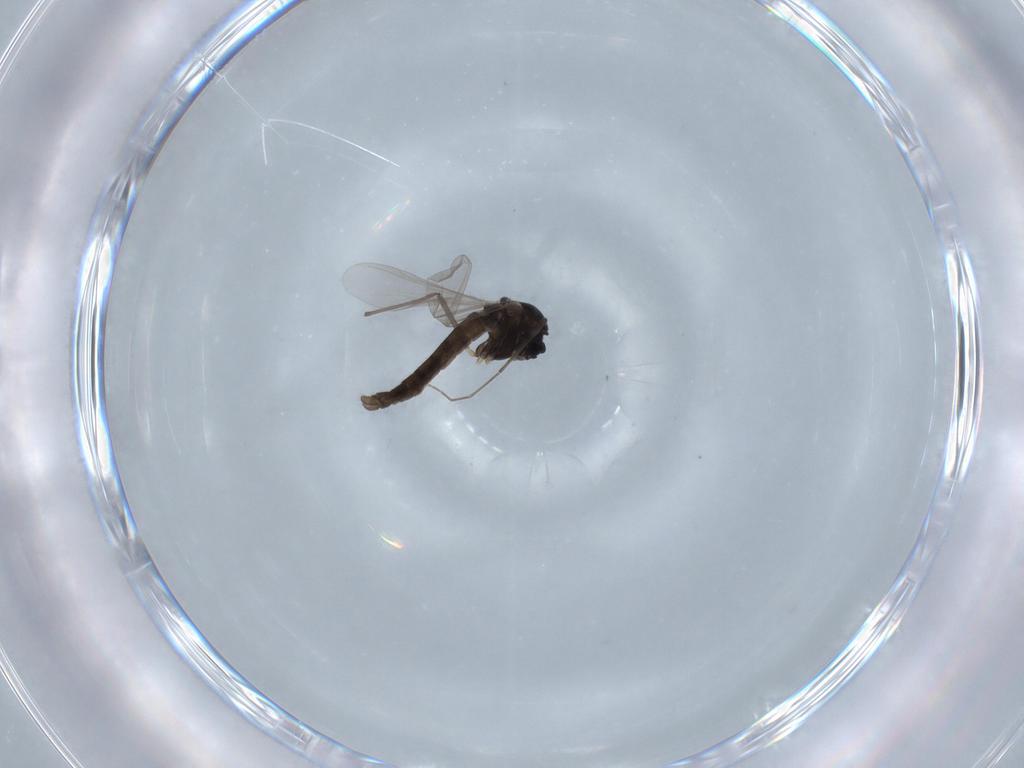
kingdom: Animalia
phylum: Arthropoda
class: Insecta
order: Diptera
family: Chironomidae
